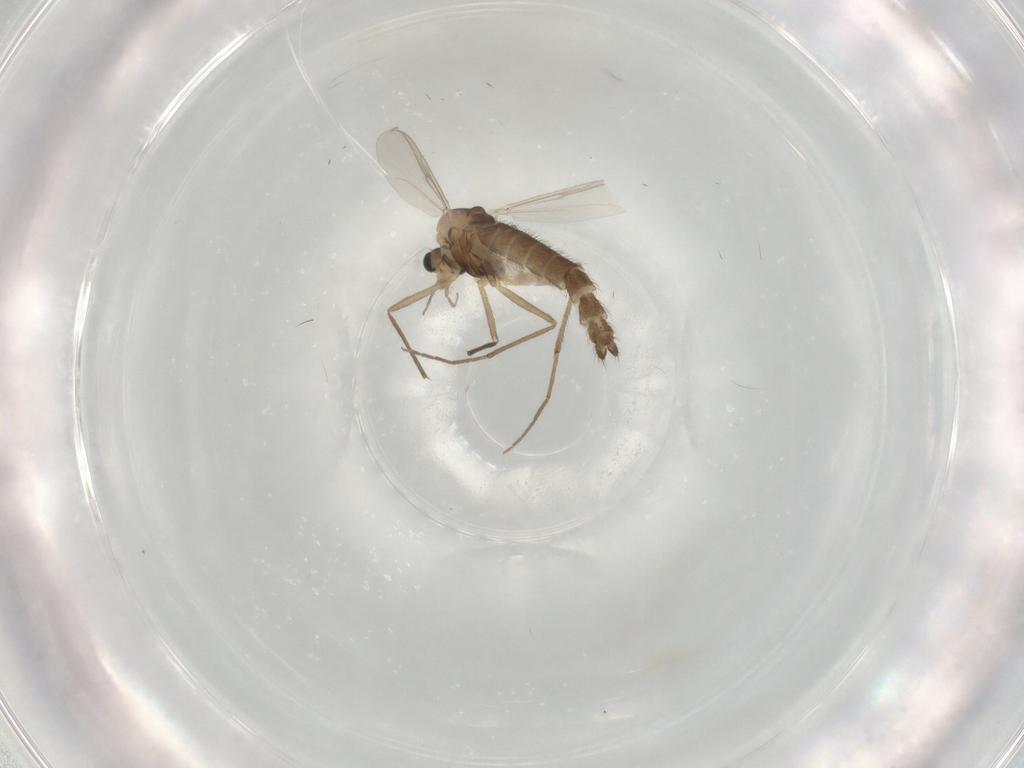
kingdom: Animalia
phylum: Arthropoda
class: Insecta
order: Diptera
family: Chironomidae
